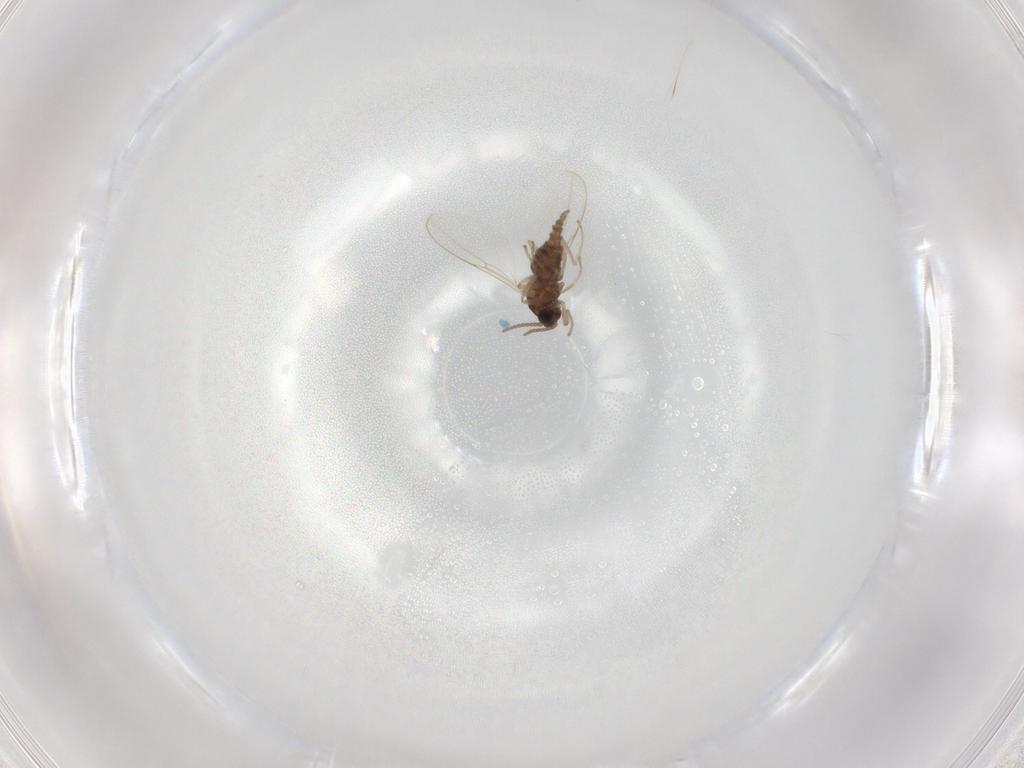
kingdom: Animalia
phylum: Arthropoda
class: Insecta
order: Diptera
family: Cecidomyiidae
